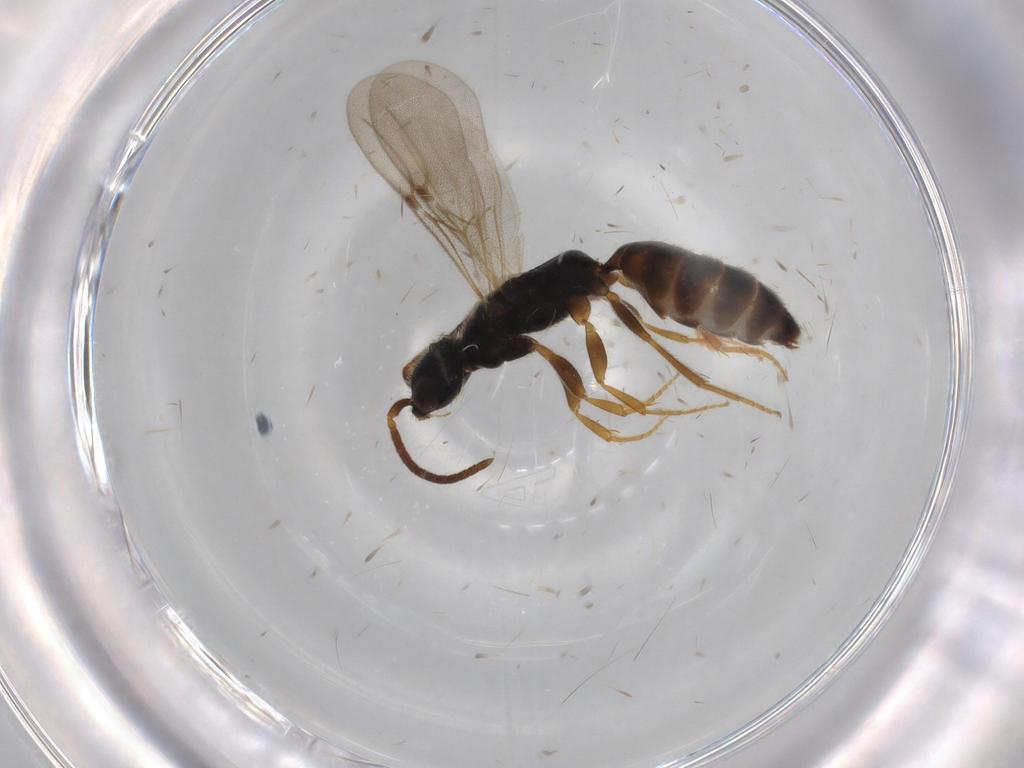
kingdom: Animalia
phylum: Arthropoda
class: Insecta
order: Hymenoptera
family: Bethylidae
